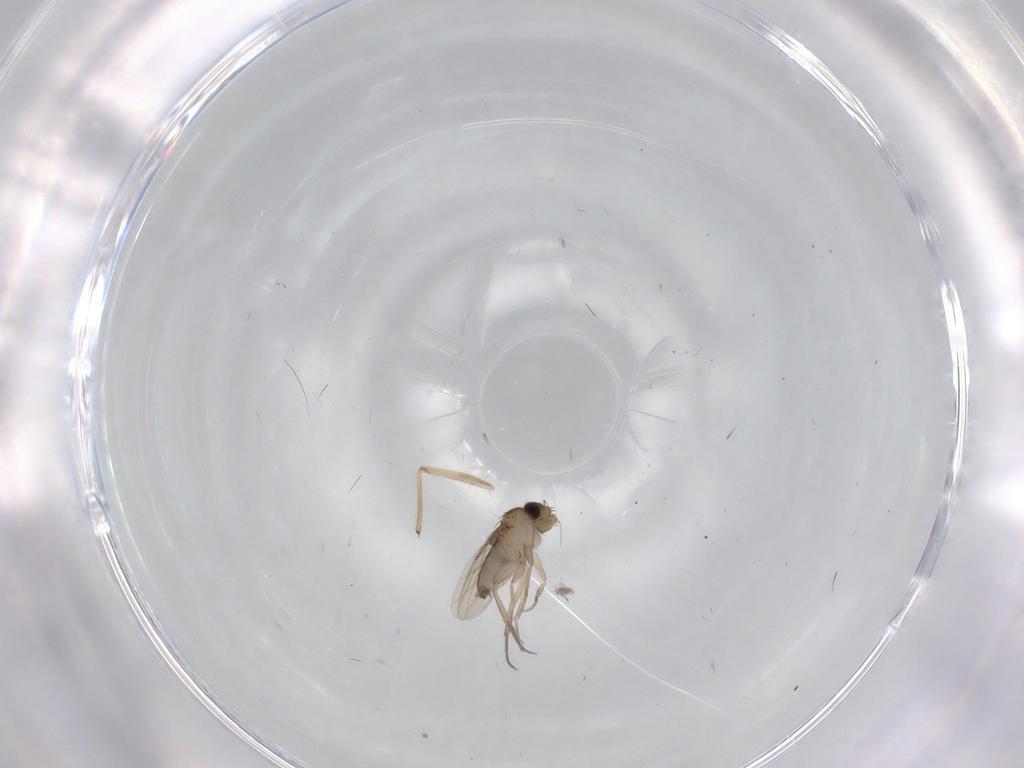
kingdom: Animalia
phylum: Arthropoda
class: Insecta
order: Diptera
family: Phoridae
